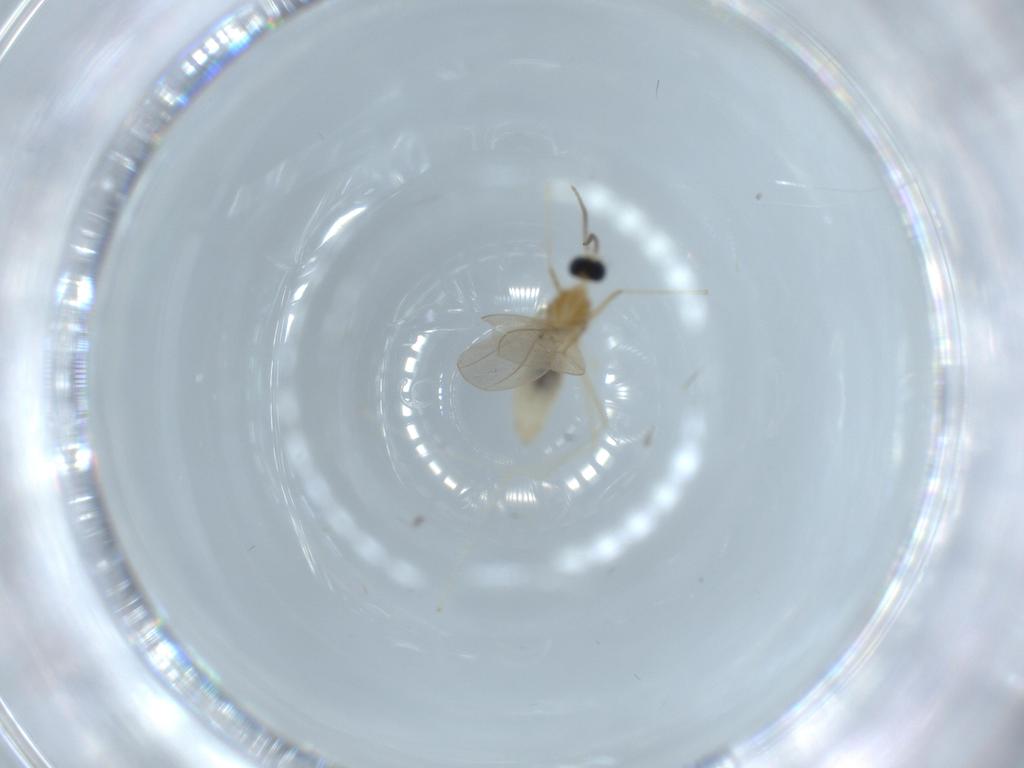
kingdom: Animalia
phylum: Arthropoda
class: Insecta
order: Diptera
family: Cecidomyiidae
